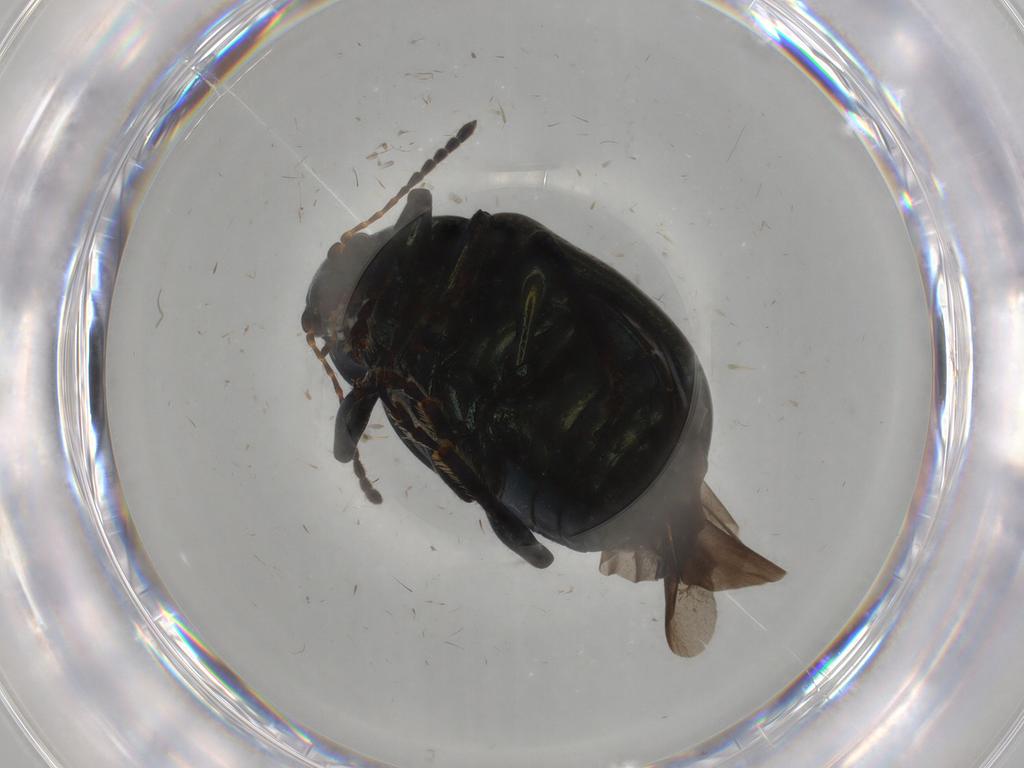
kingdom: Animalia
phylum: Arthropoda
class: Insecta
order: Coleoptera
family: Chrysomelidae
